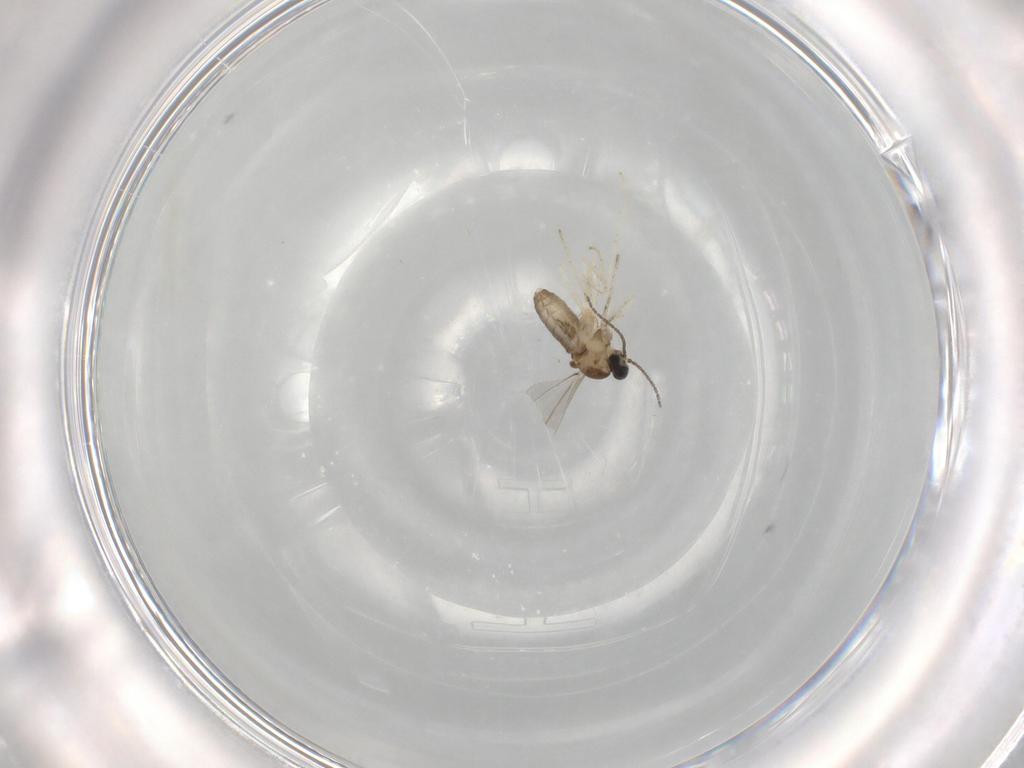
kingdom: Animalia
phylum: Arthropoda
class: Insecta
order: Diptera
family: Cecidomyiidae
